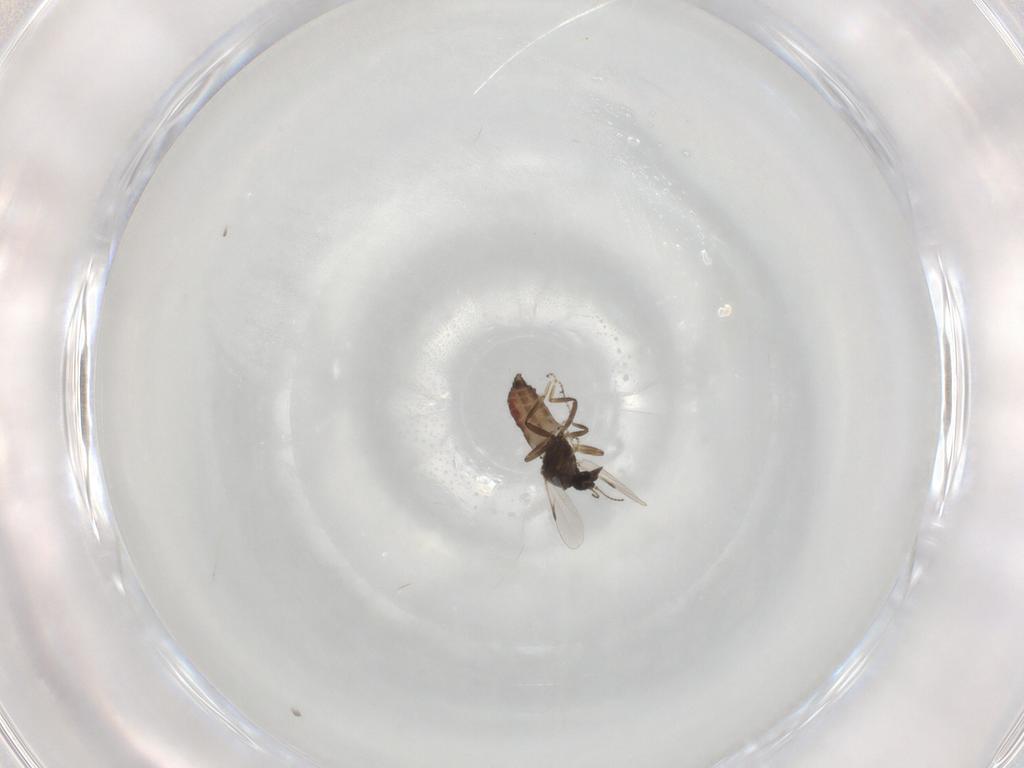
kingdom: Animalia
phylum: Arthropoda
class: Insecta
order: Diptera
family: Ceratopogonidae
